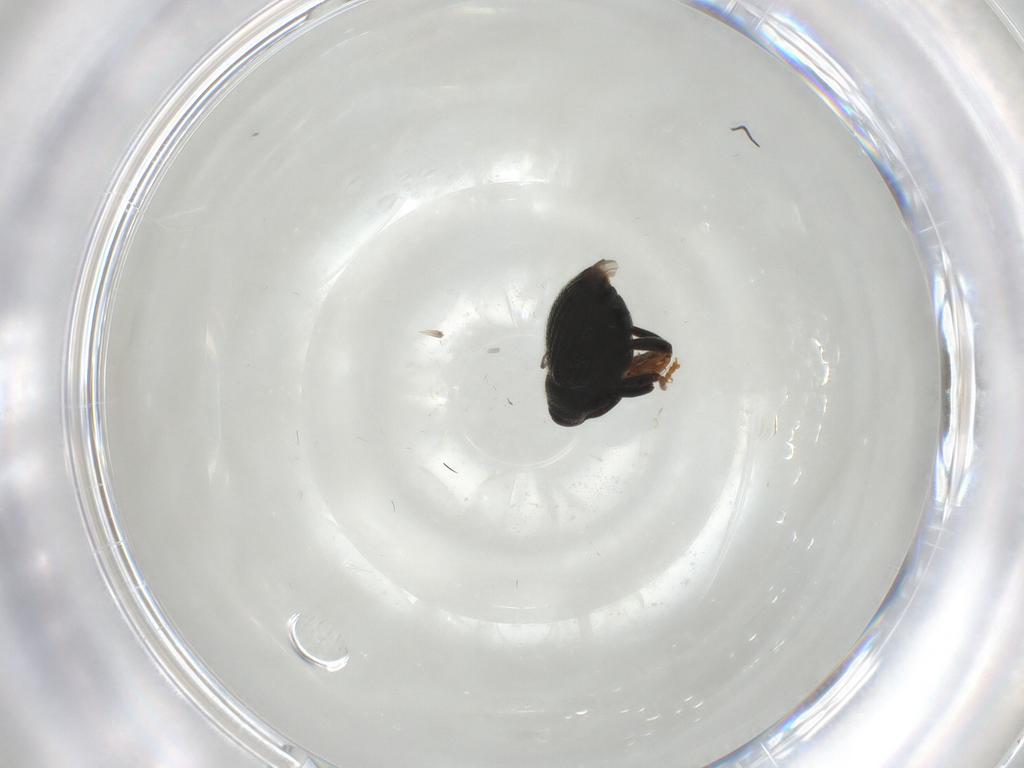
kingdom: Animalia
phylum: Arthropoda
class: Insecta
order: Coleoptera
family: Curculionidae
